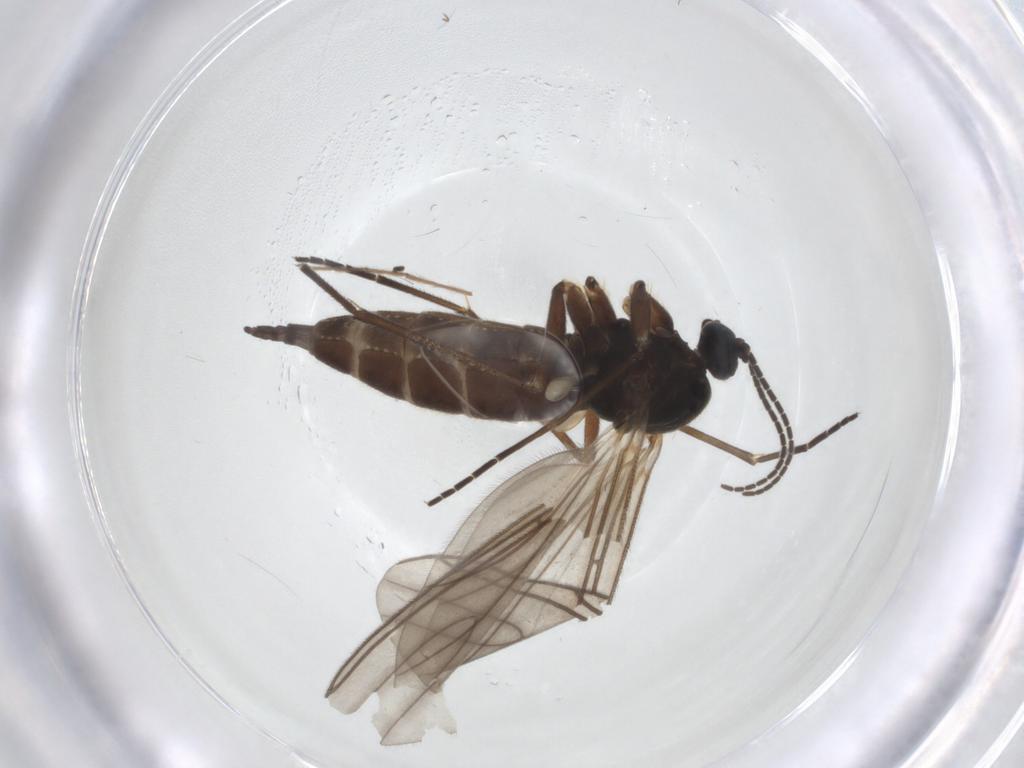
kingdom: Animalia
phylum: Arthropoda
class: Insecta
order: Diptera
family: Sciaridae
